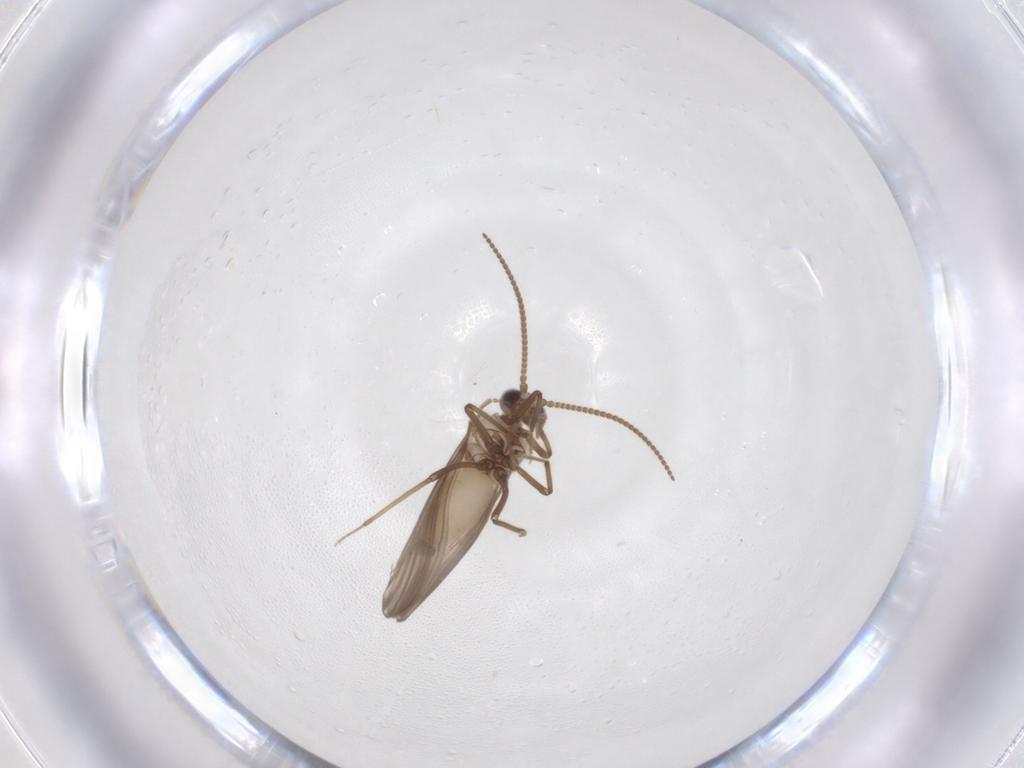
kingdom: Animalia
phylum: Arthropoda
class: Insecta
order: Neuroptera
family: Coniopterygidae
